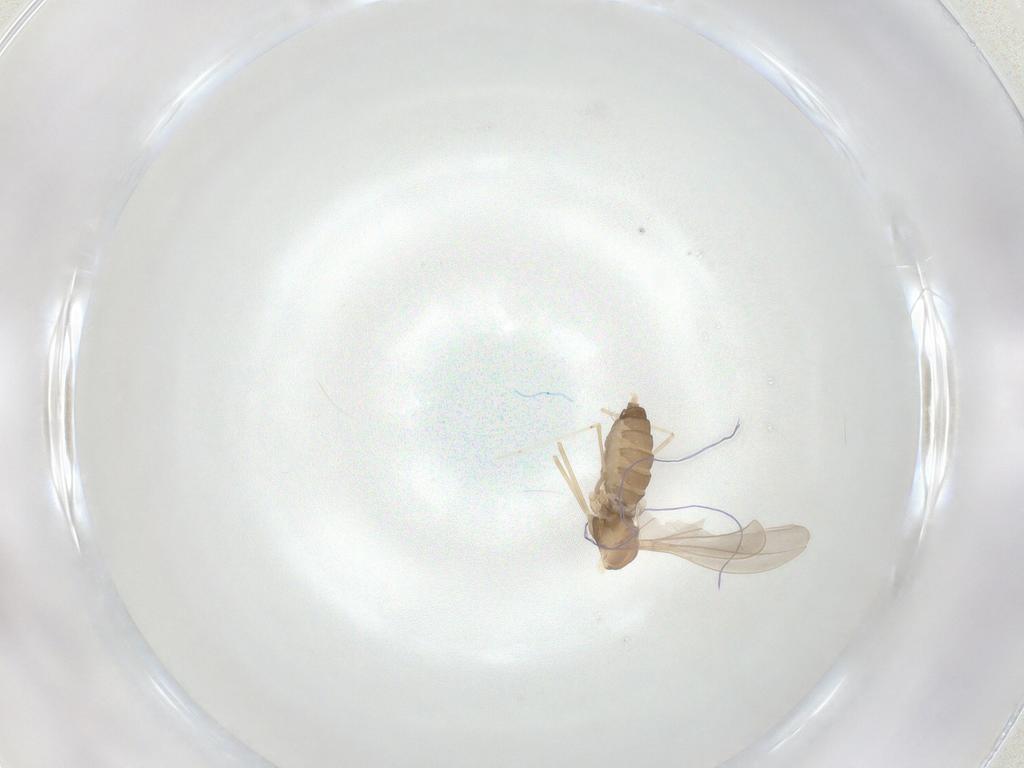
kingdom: Animalia
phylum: Arthropoda
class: Insecta
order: Diptera
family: Cecidomyiidae
